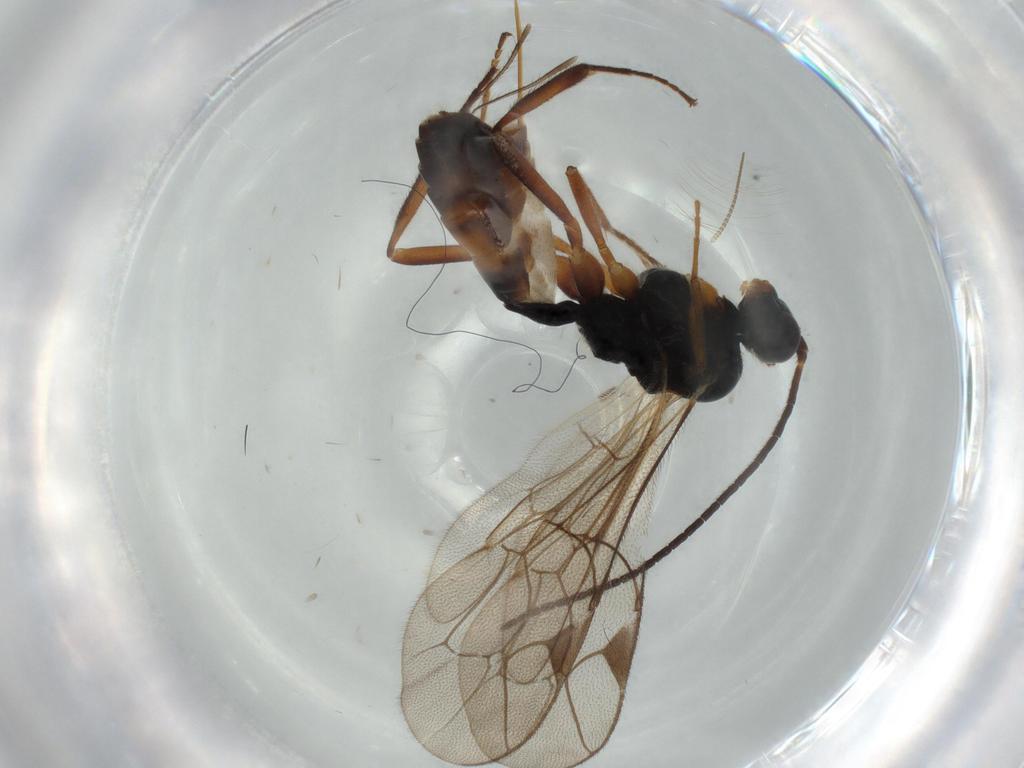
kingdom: Animalia
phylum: Arthropoda
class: Insecta
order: Hymenoptera
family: Ichneumonidae
